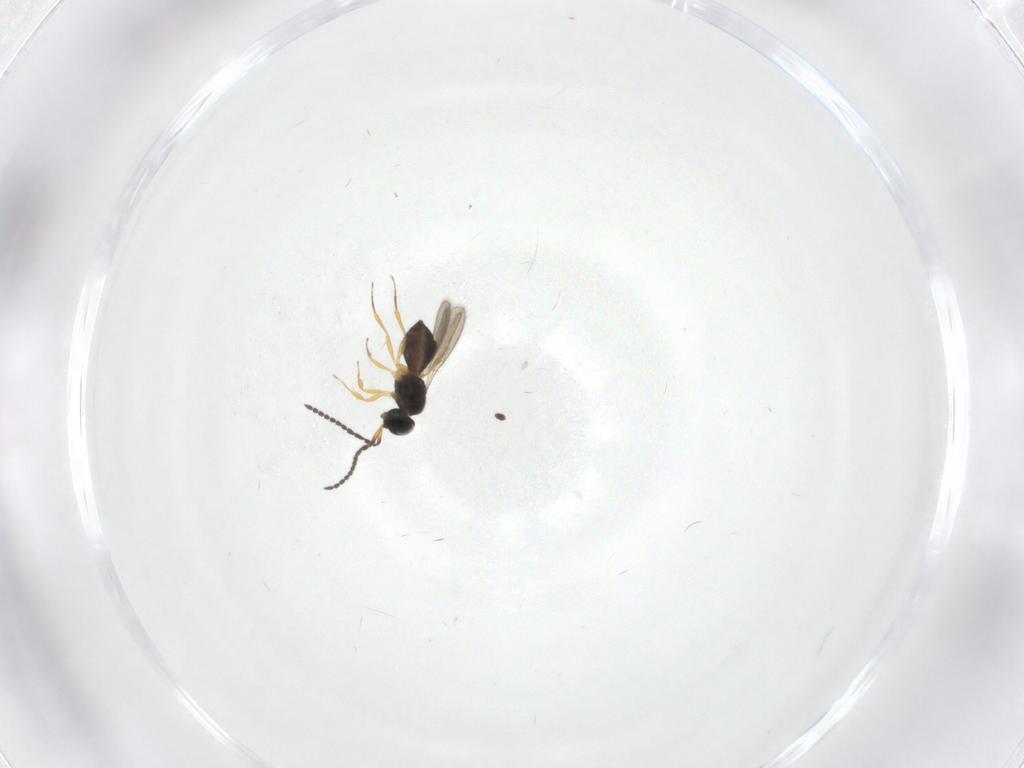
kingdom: Animalia
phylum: Arthropoda
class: Insecta
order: Hymenoptera
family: Scelionidae
